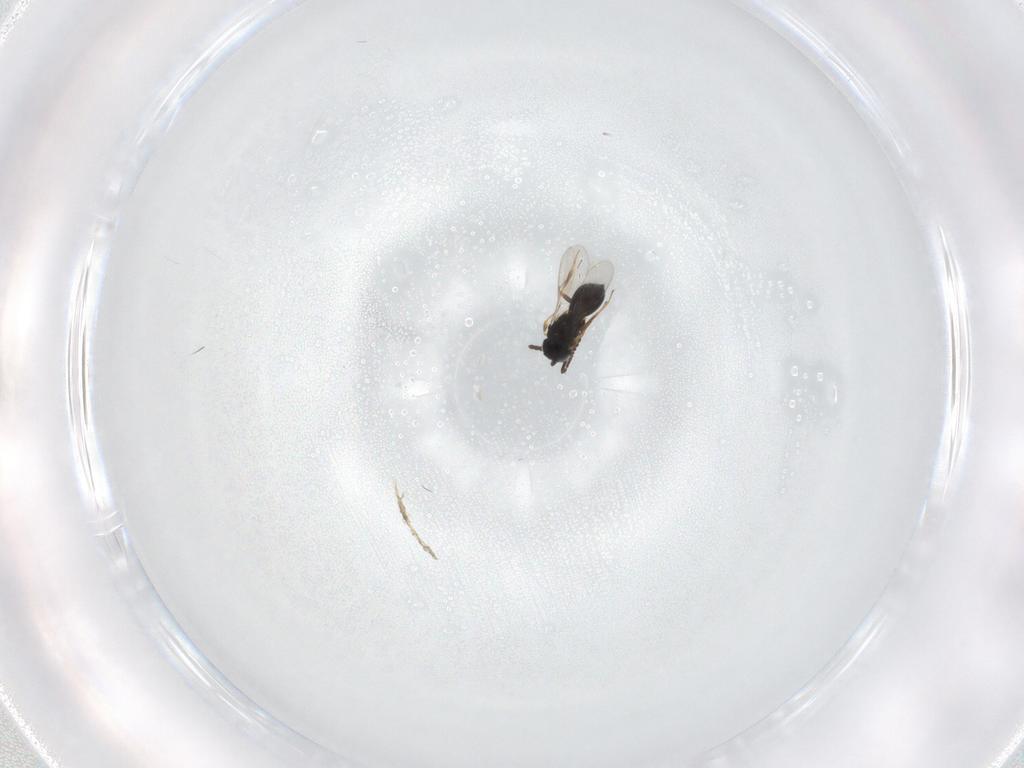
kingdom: Animalia
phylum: Arthropoda
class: Insecta
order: Hymenoptera
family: Scelionidae
